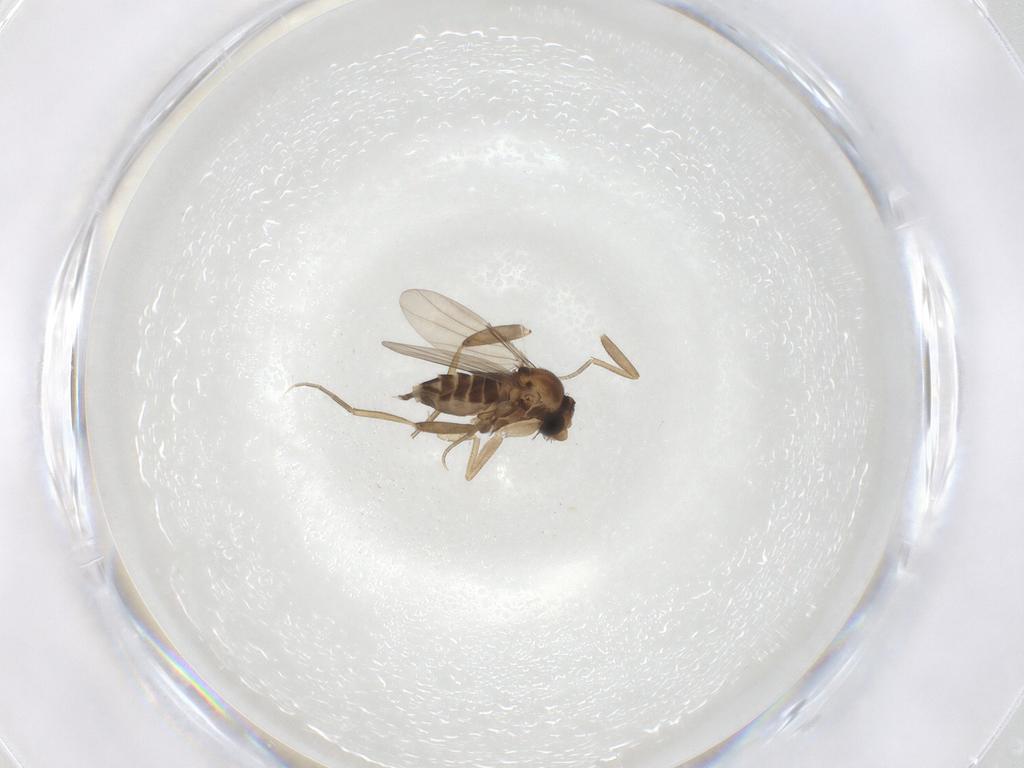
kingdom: Animalia
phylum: Arthropoda
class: Insecta
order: Diptera
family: Phoridae
